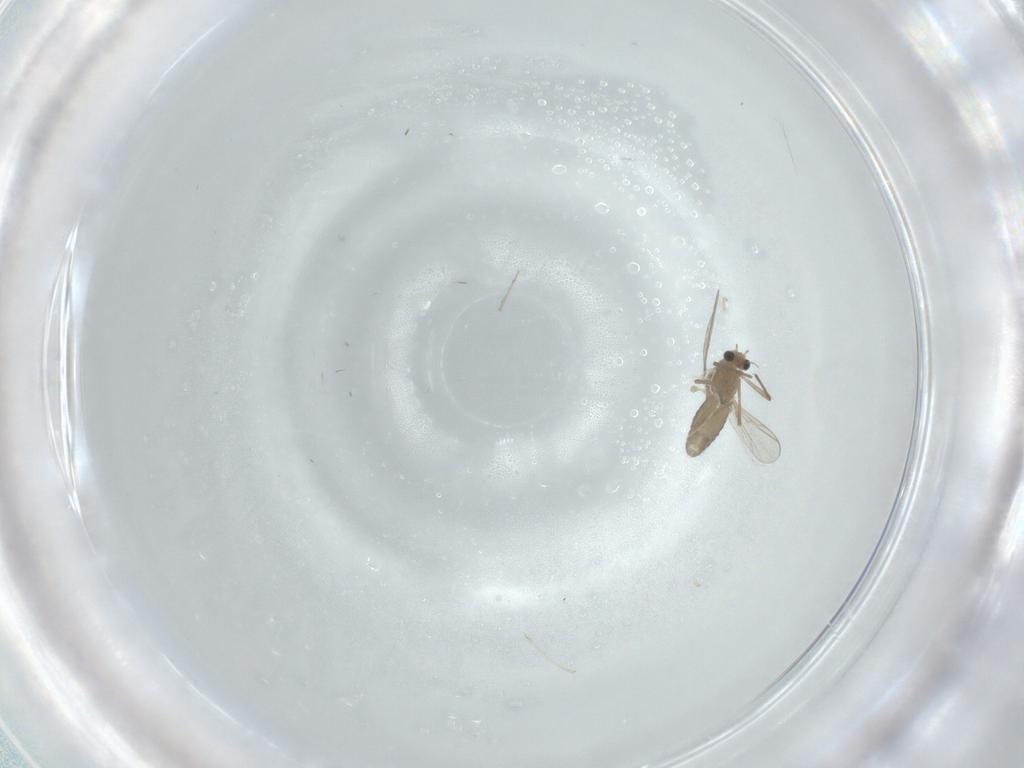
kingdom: Animalia
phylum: Arthropoda
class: Insecta
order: Diptera
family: Chironomidae
